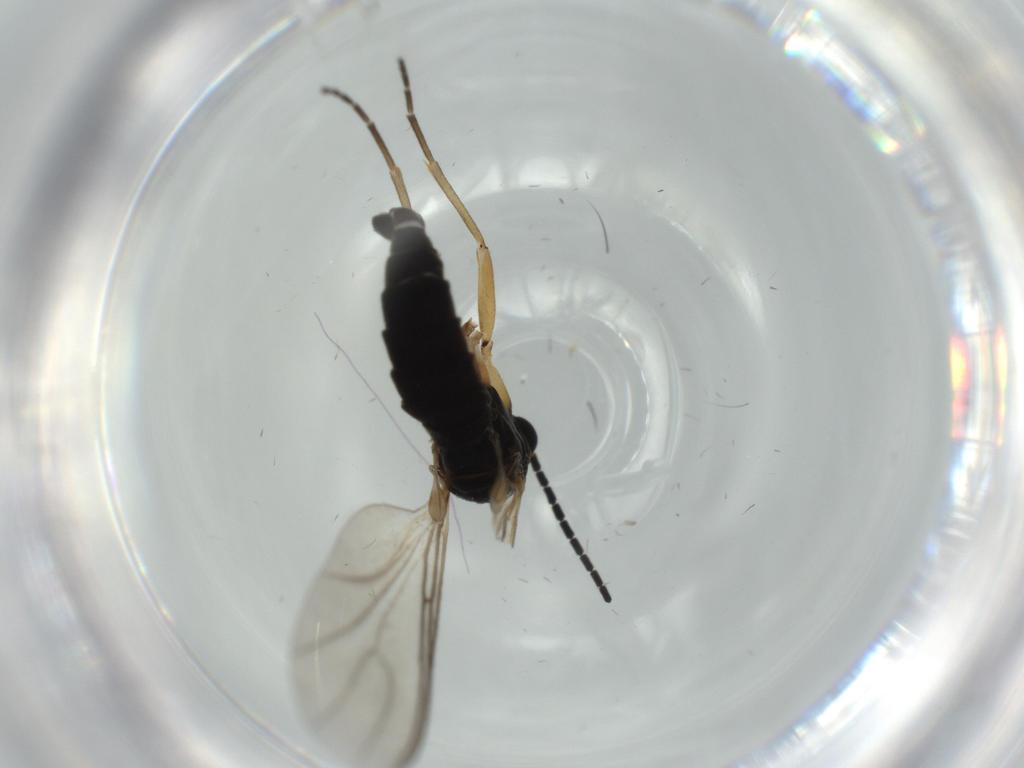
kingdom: Animalia
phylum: Arthropoda
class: Insecta
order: Diptera
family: Sciaridae
